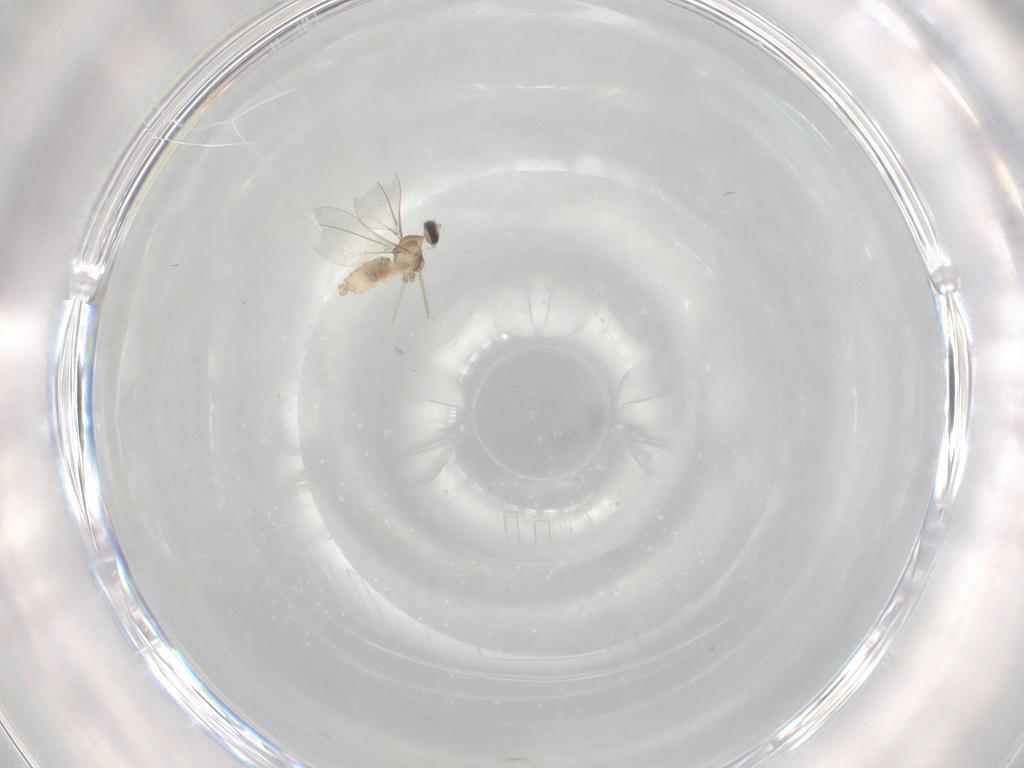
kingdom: Animalia
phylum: Arthropoda
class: Insecta
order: Diptera
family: Cecidomyiidae
